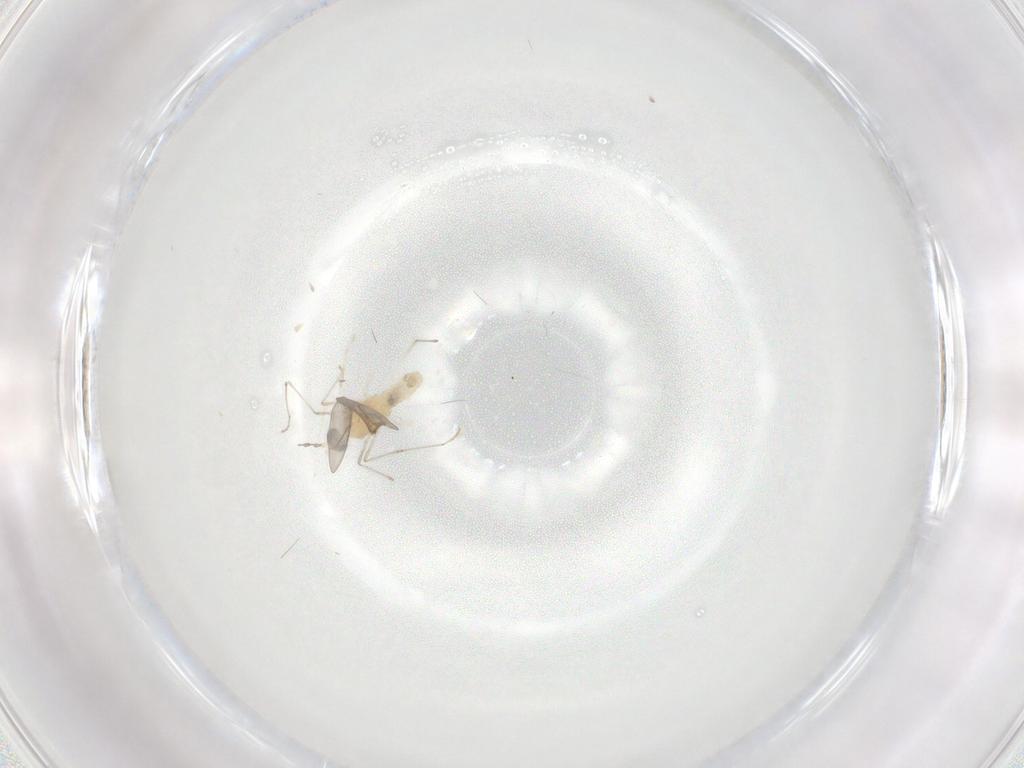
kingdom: Animalia
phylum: Arthropoda
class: Insecta
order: Diptera
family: Cecidomyiidae
